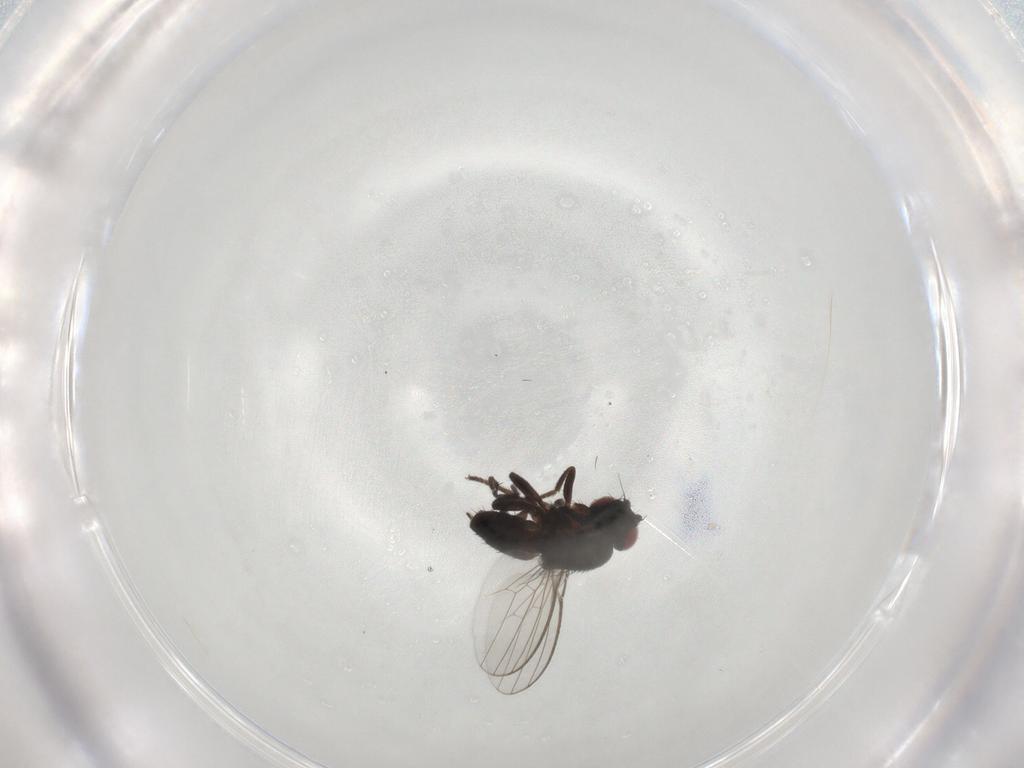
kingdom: Animalia
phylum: Arthropoda
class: Insecta
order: Diptera
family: Milichiidae
